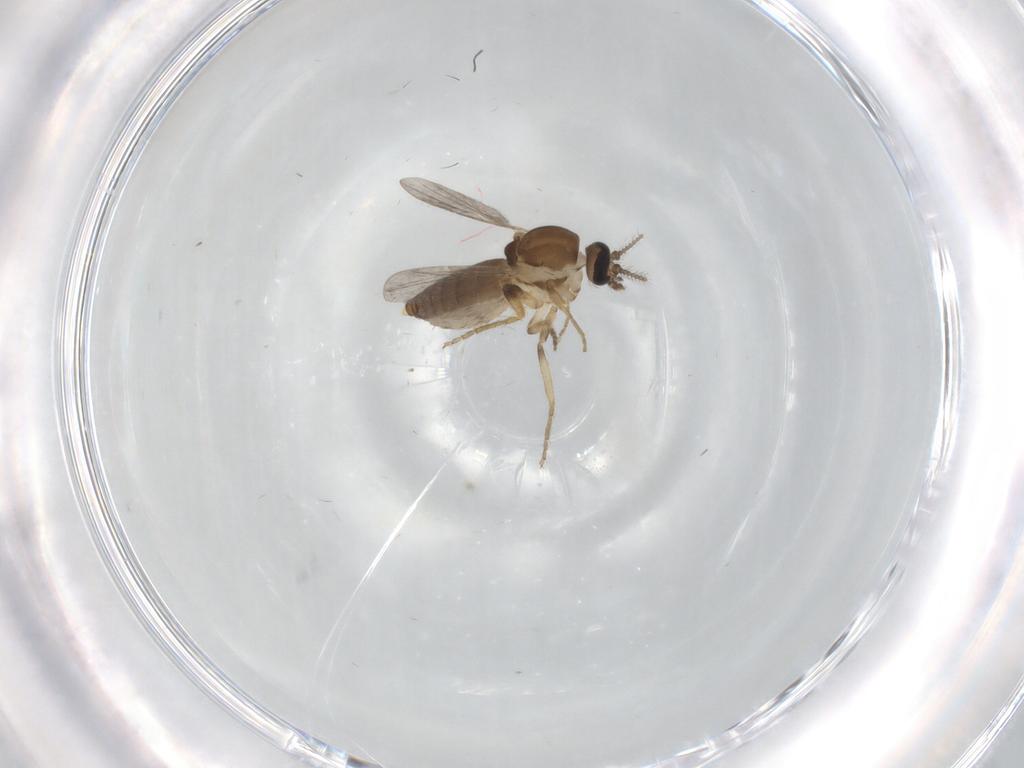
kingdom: Animalia
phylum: Arthropoda
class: Insecta
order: Diptera
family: Ceratopogonidae
